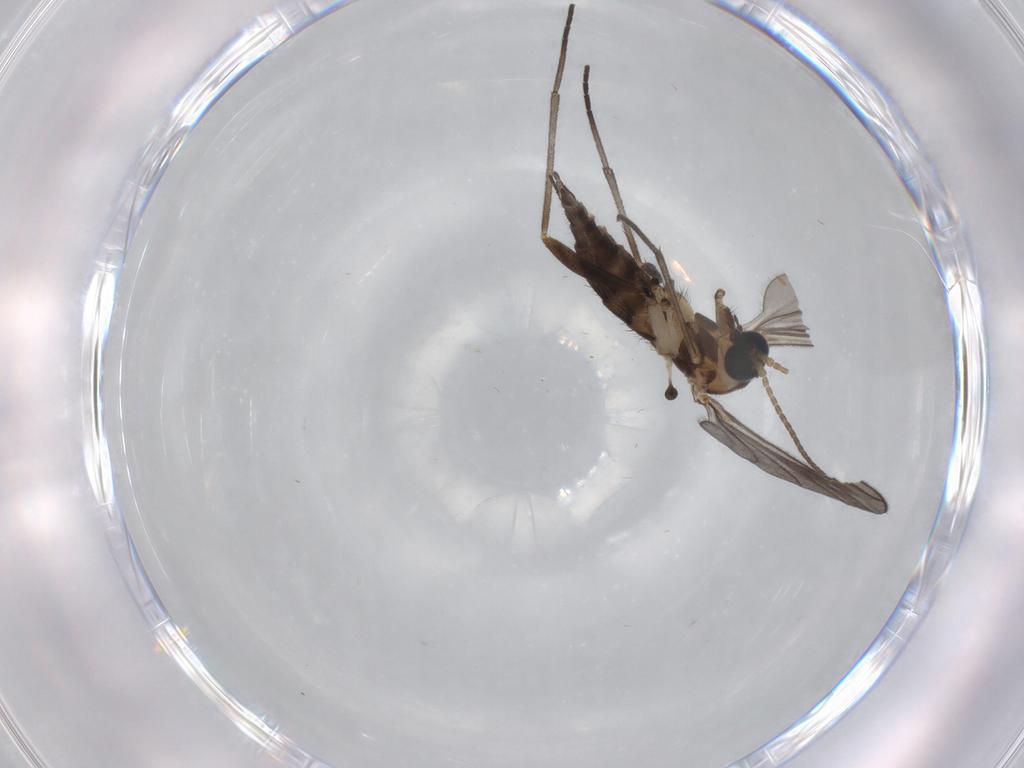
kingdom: Animalia
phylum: Arthropoda
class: Insecta
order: Diptera
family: Sciaridae
